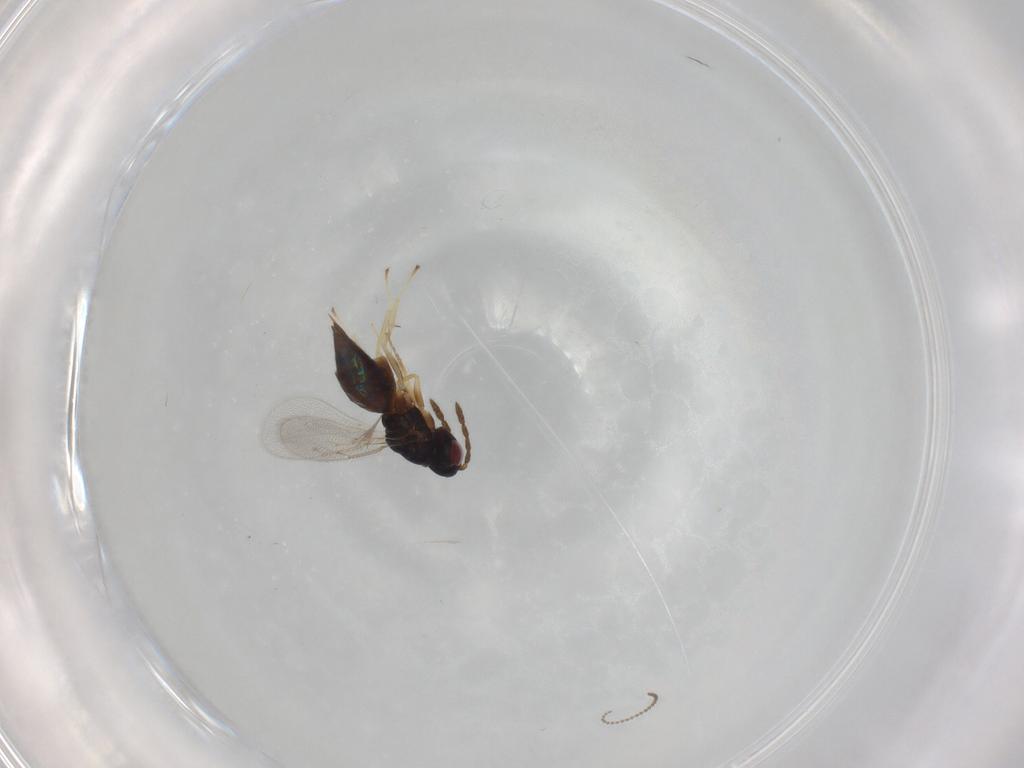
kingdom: Animalia
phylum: Arthropoda
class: Insecta
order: Hymenoptera
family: Eulophidae
